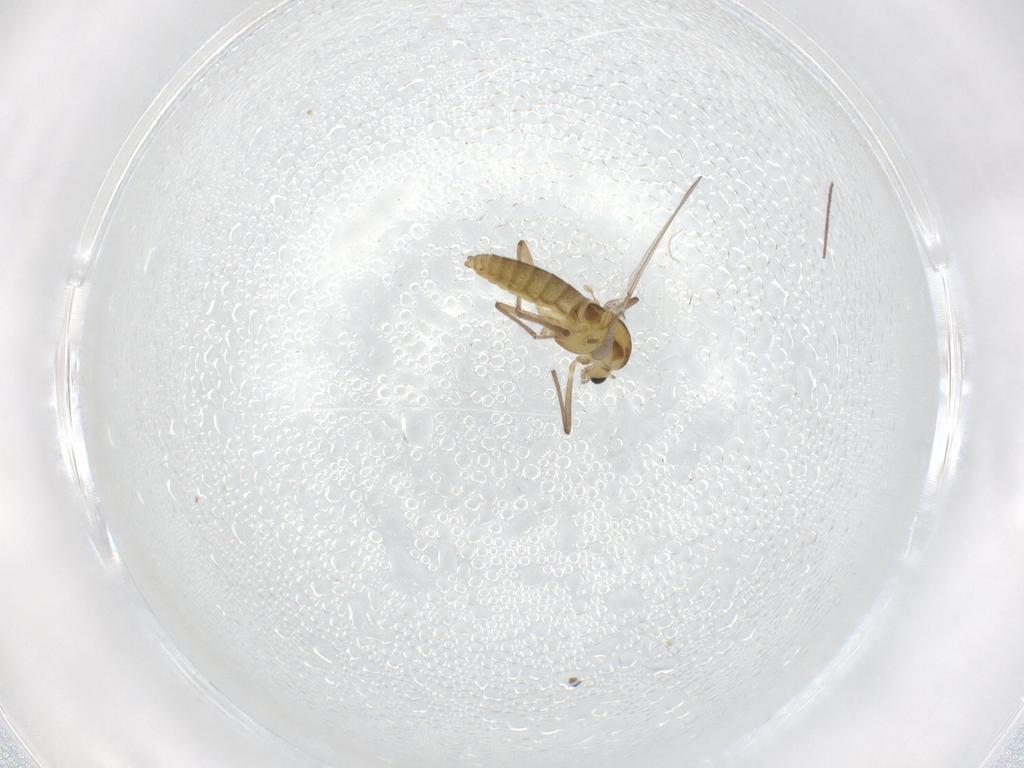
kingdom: Animalia
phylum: Arthropoda
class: Insecta
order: Diptera
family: Chironomidae
